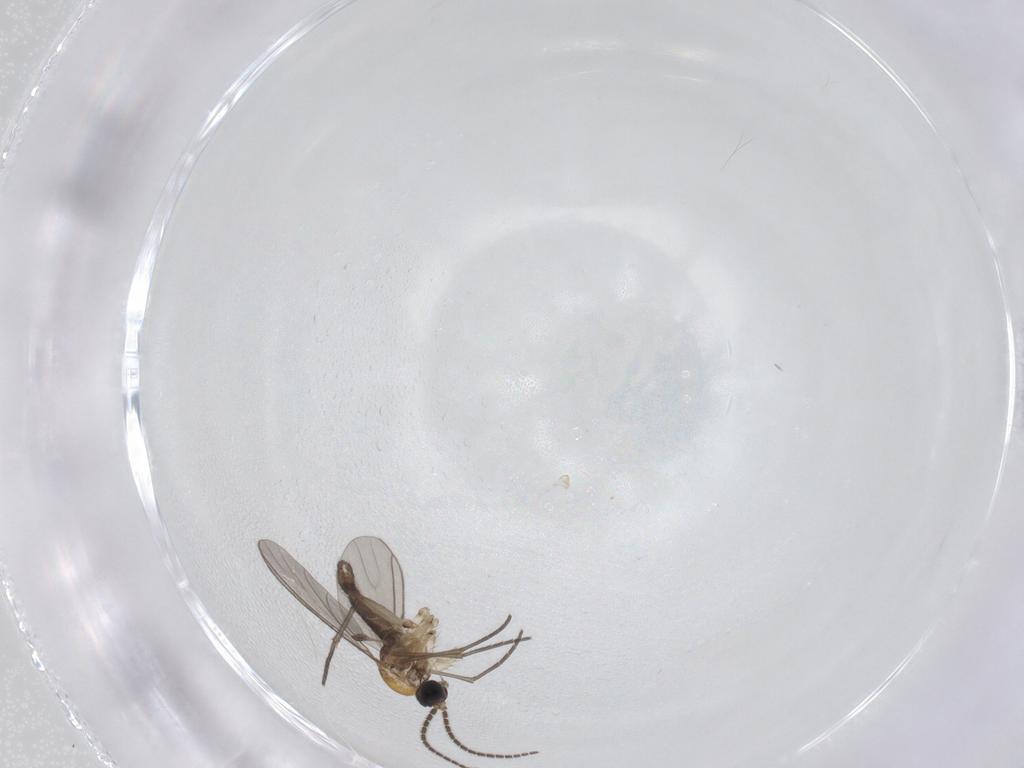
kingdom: Animalia
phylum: Arthropoda
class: Insecta
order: Diptera
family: Sciaridae
